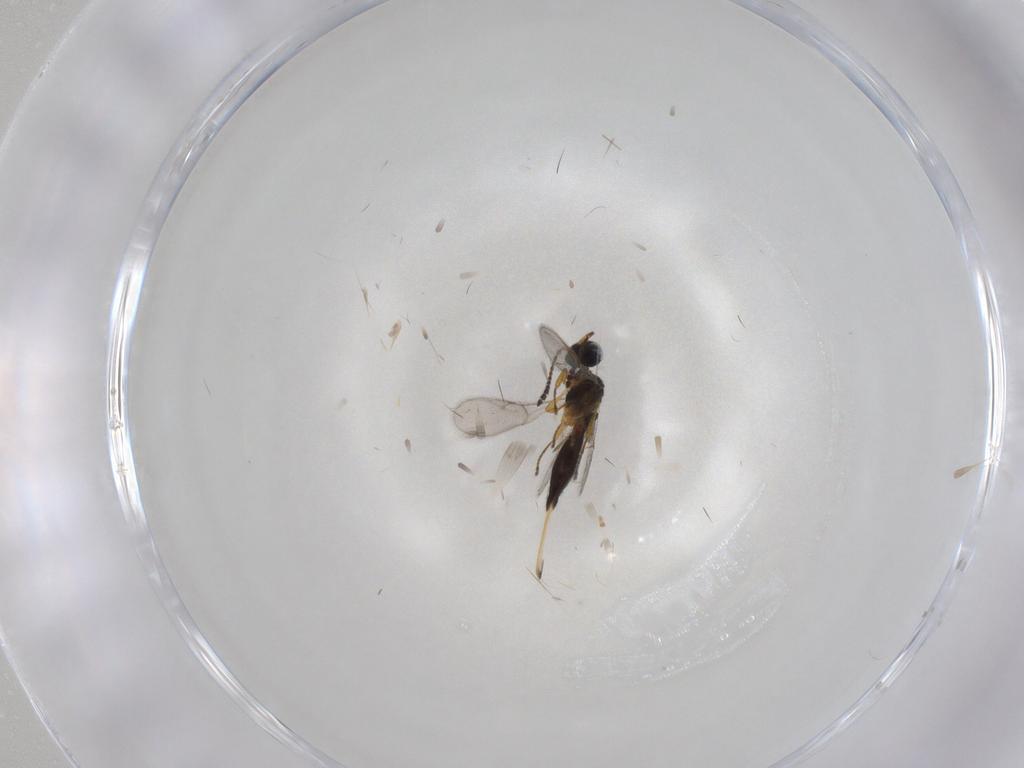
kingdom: Animalia
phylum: Arthropoda
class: Insecta
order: Hymenoptera
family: Scelionidae
